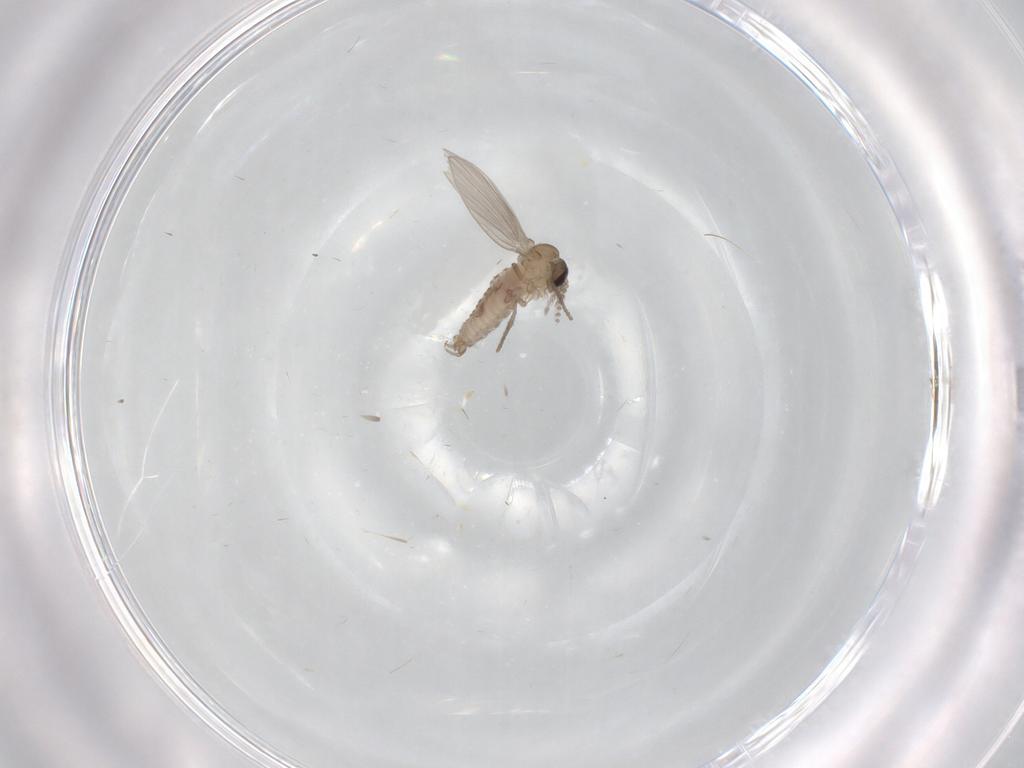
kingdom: Animalia
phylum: Arthropoda
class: Insecta
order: Diptera
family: Psychodidae
